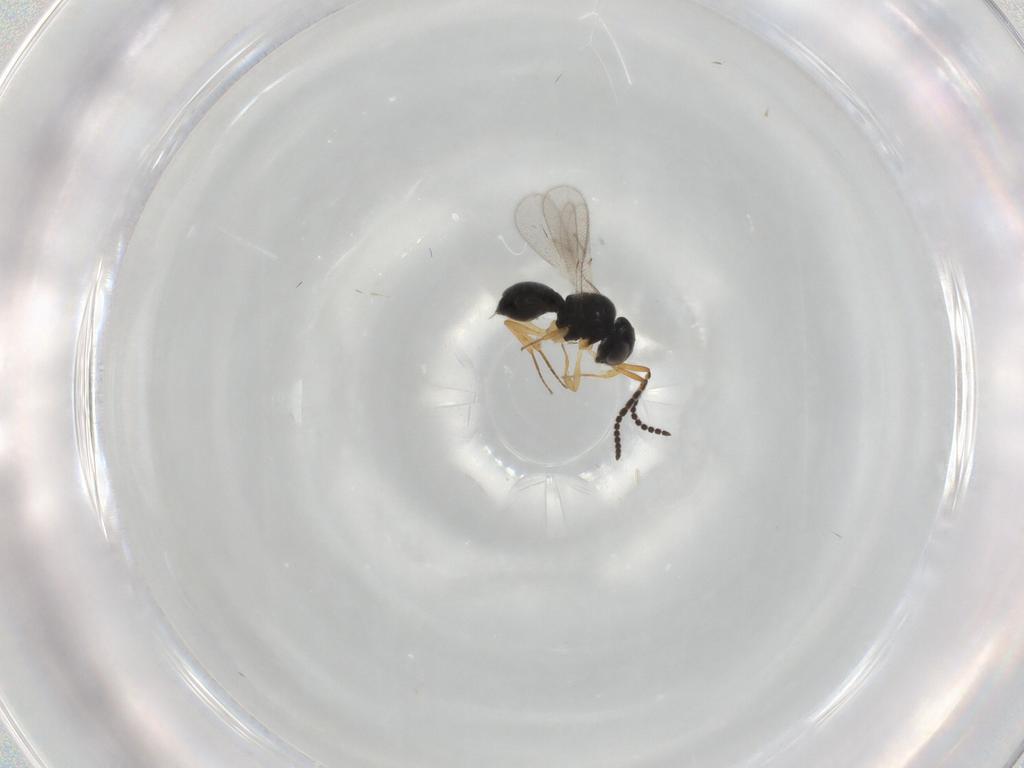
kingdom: Animalia
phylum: Arthropoda
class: Insecta
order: Hymenoptera
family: Scelionidae
